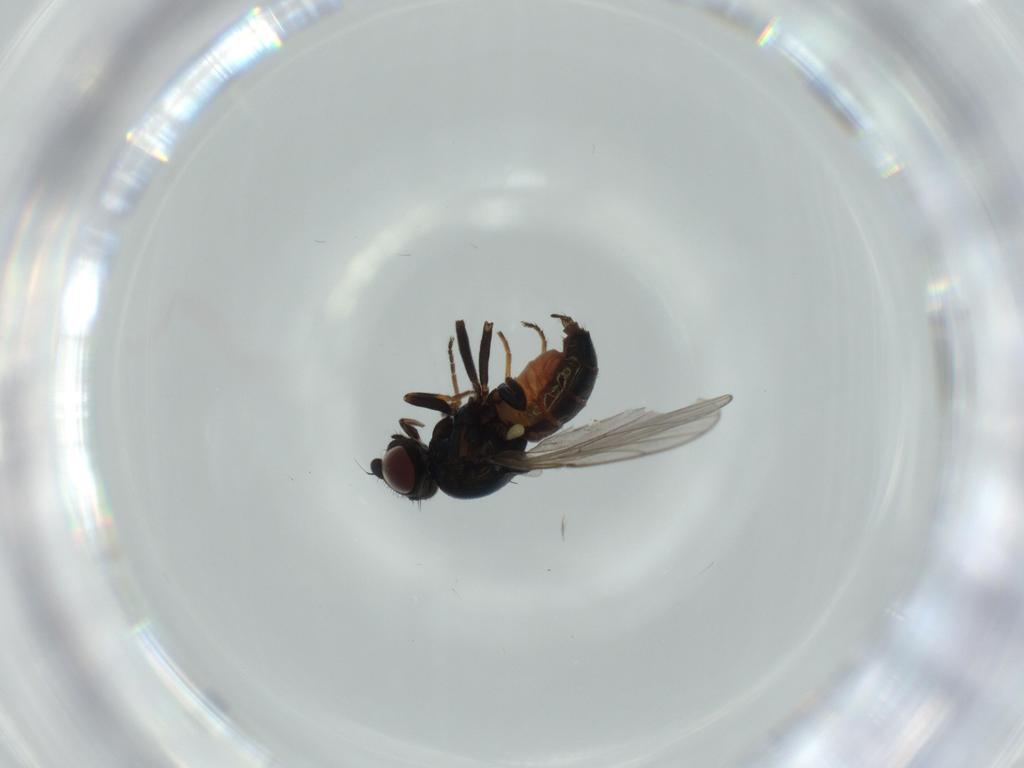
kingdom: Animalia
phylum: Arthropoda
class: Insecta
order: Diptera
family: Chloropidae
